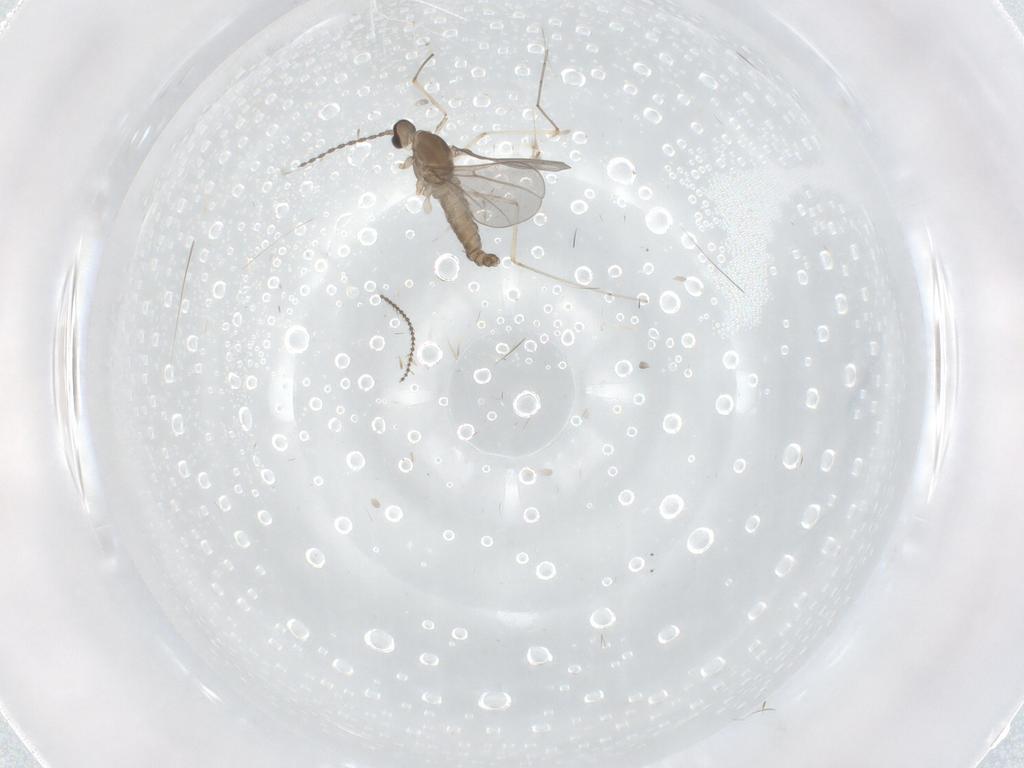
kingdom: Animalia
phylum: Arthropoda
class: Insecta
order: Diptera
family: Cecidomyiidae
